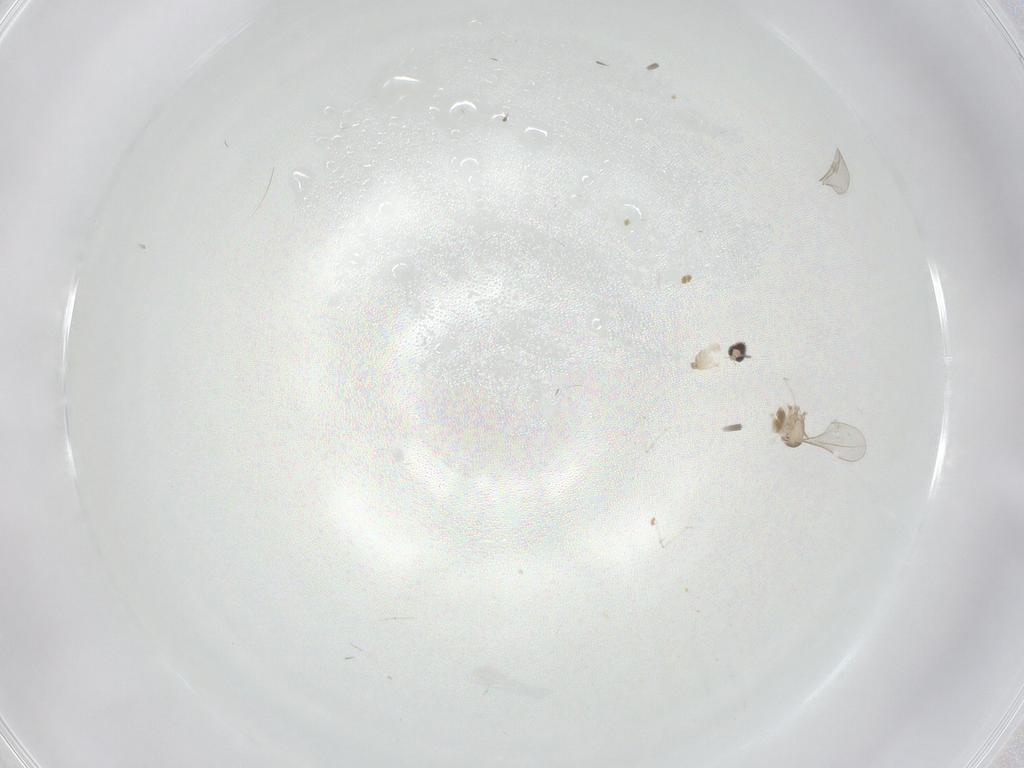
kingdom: Animalia
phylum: Arthropoda
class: Insecta
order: Diptera
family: Cecidomyiidae
